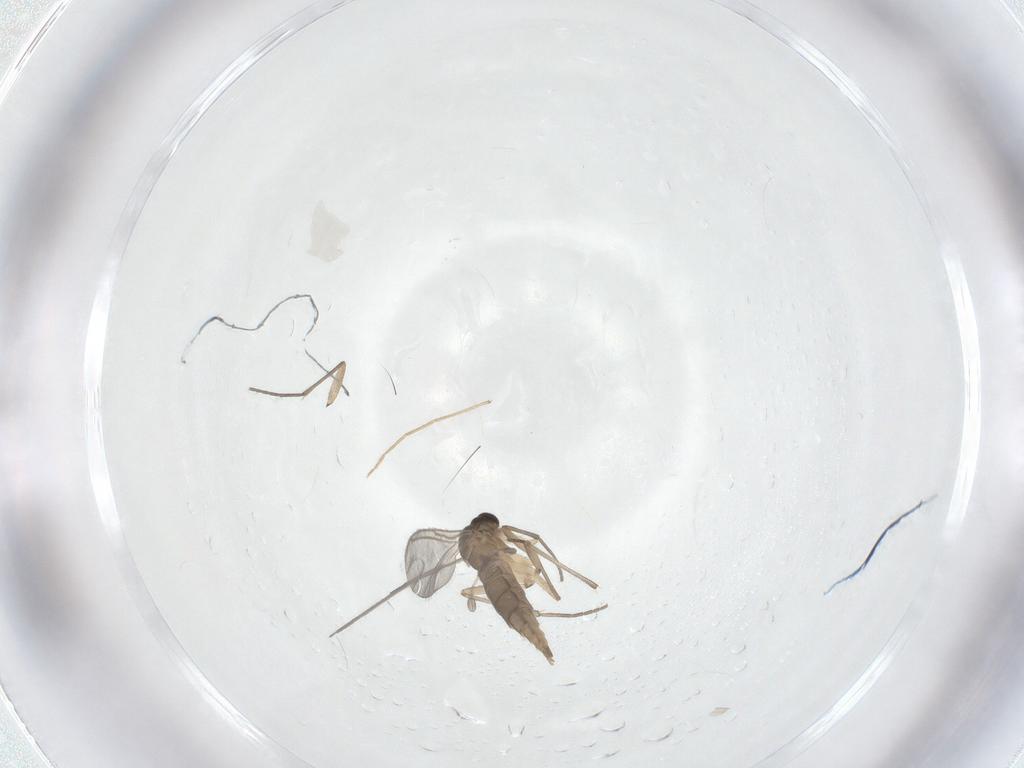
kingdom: Animalia
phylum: Arthropoda
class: Insecta
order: Diptera
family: Sciaridae
